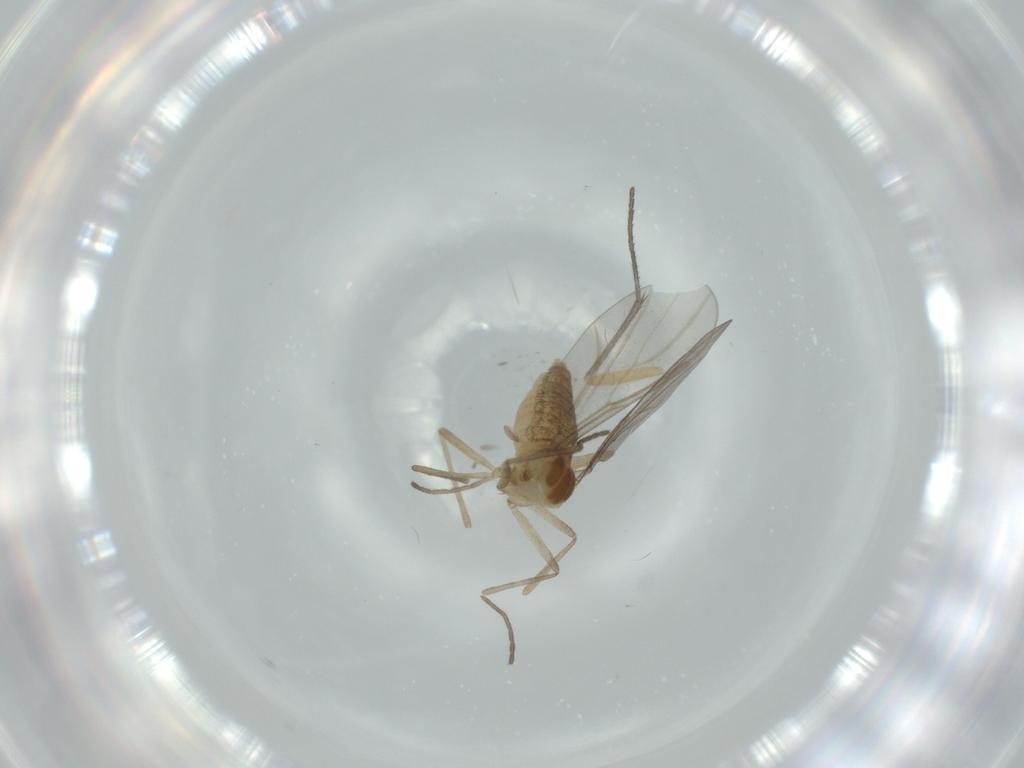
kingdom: Animalia
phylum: Arthropoda
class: Insecta
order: Diptera
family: Cecidomyiidae
